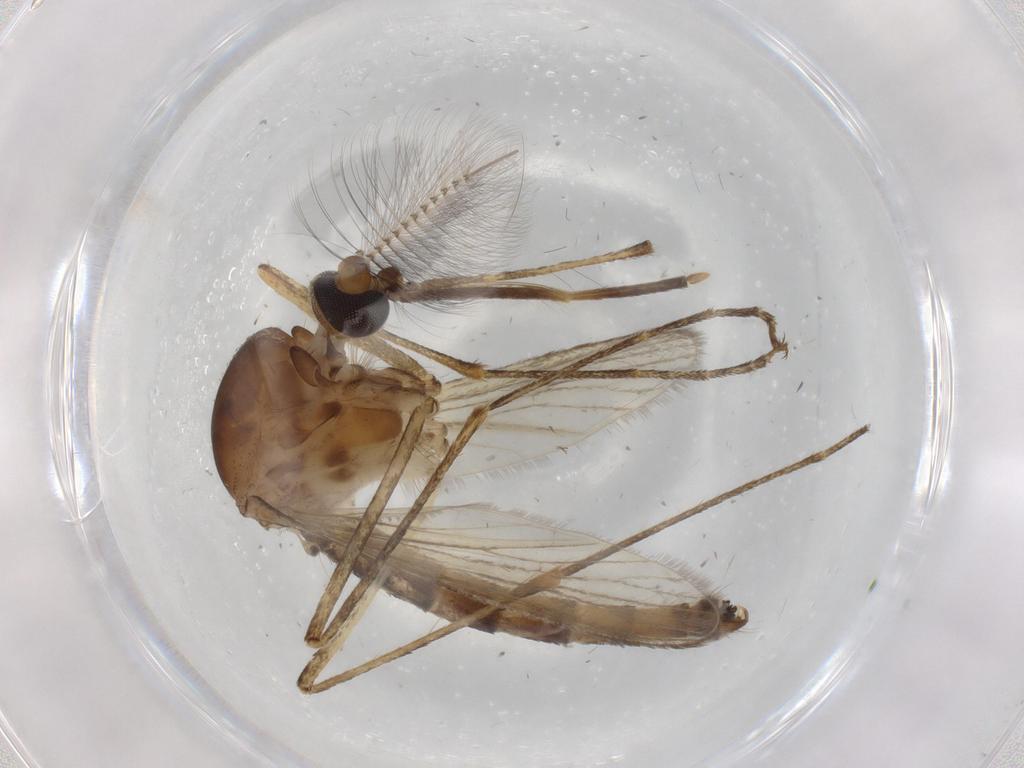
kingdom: Animalia
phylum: Arthropoda
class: Insecta
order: Diptera
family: Psychodidae
